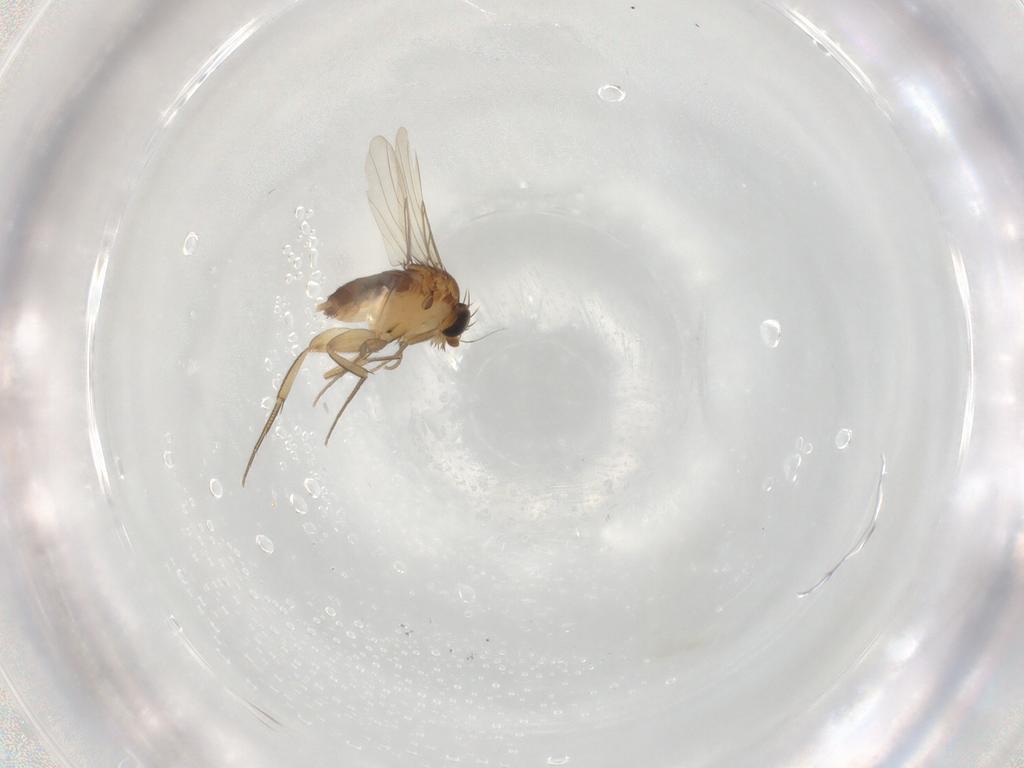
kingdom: Animalia
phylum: Arthropoda
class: Insecta
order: Diptera
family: Phoridae
